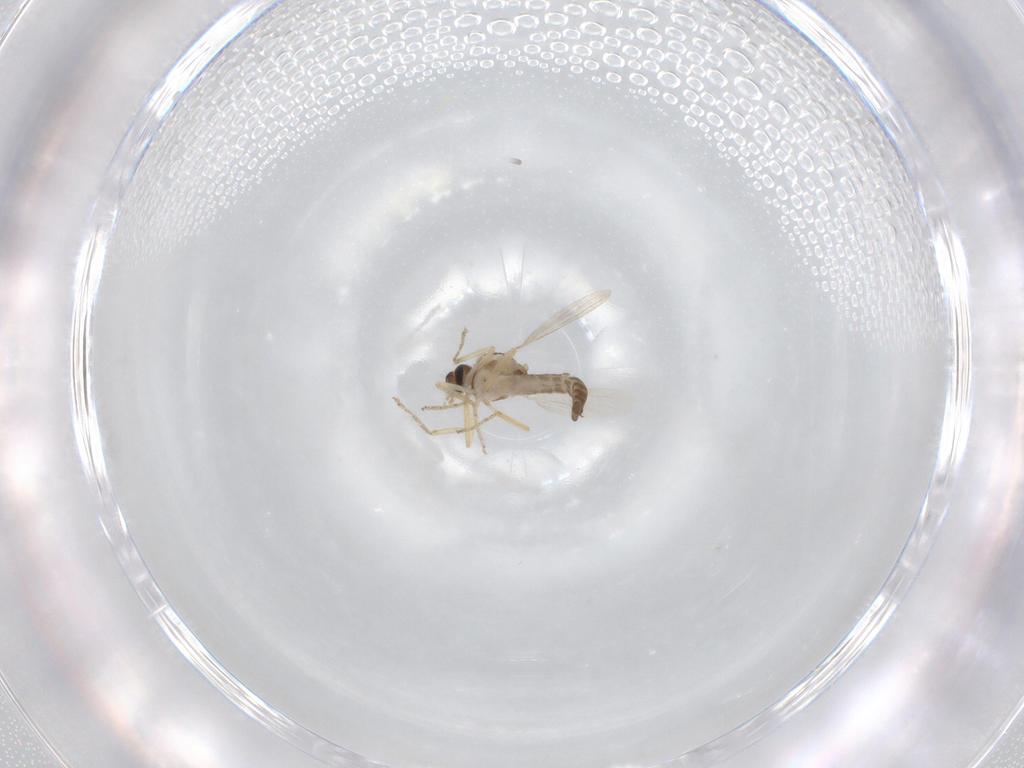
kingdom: Animalia
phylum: Arthropoda
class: Insecta
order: Diptera
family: Ceratopogonidae
